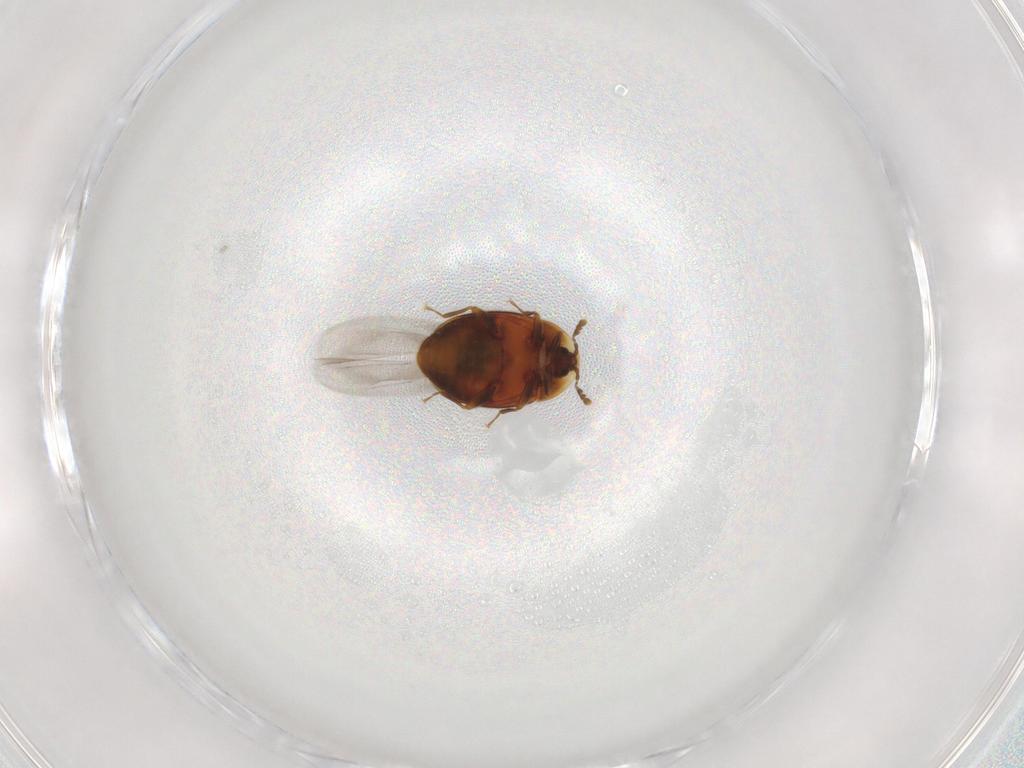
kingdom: Animalia
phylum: Arthropoda
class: Insecta
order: Coleoptera
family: Corylophidae
